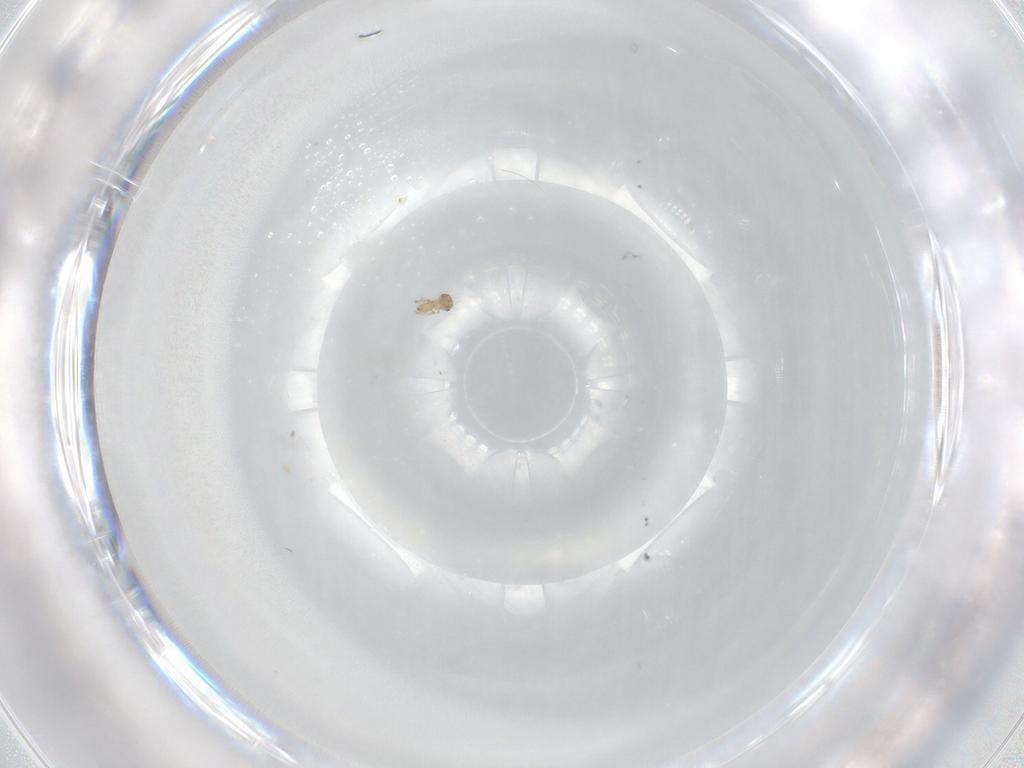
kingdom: Animalia
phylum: Arthropoda
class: Arachnida
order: Sarcoptiformes
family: Ceratozetidae
